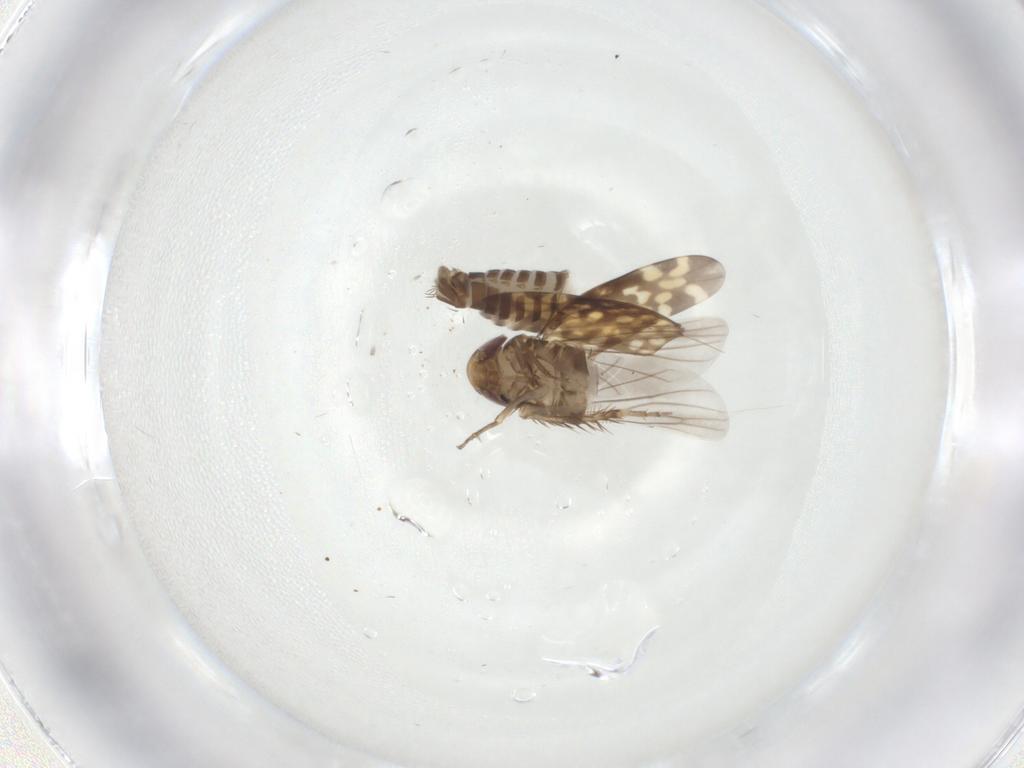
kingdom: Animalia
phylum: Arthropoda
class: Insecta
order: Hemiptera
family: Cicadellidae
